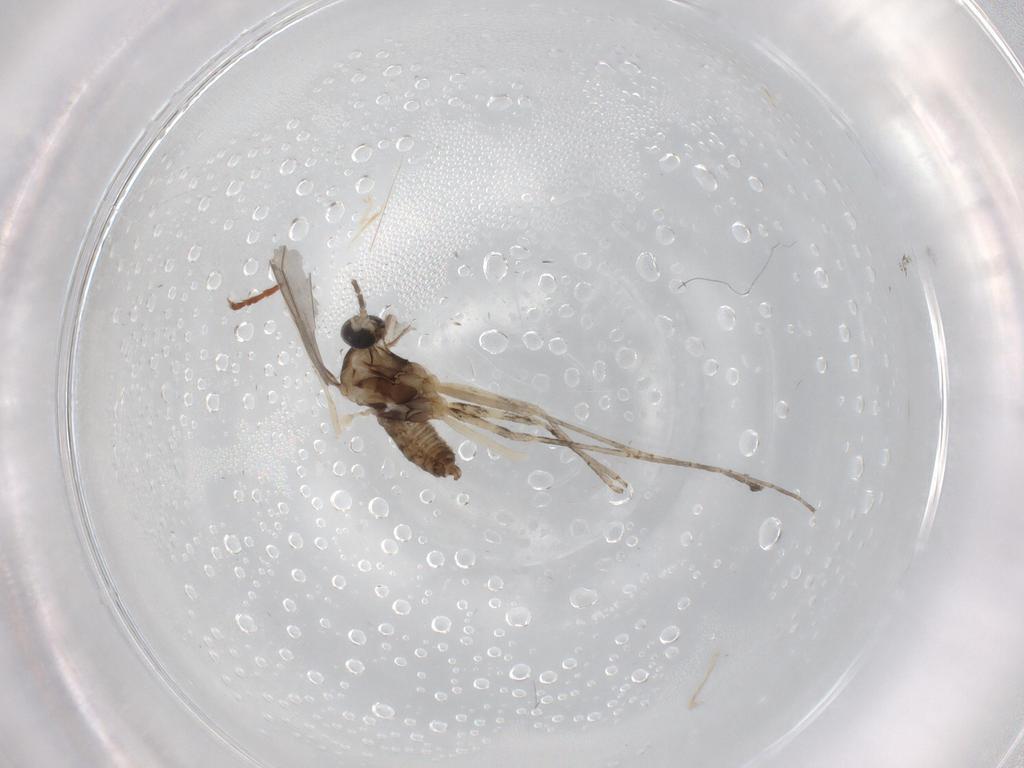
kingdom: Animalia
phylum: Arthropoda
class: Insecta
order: Diptera
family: Cecidomyiidae
